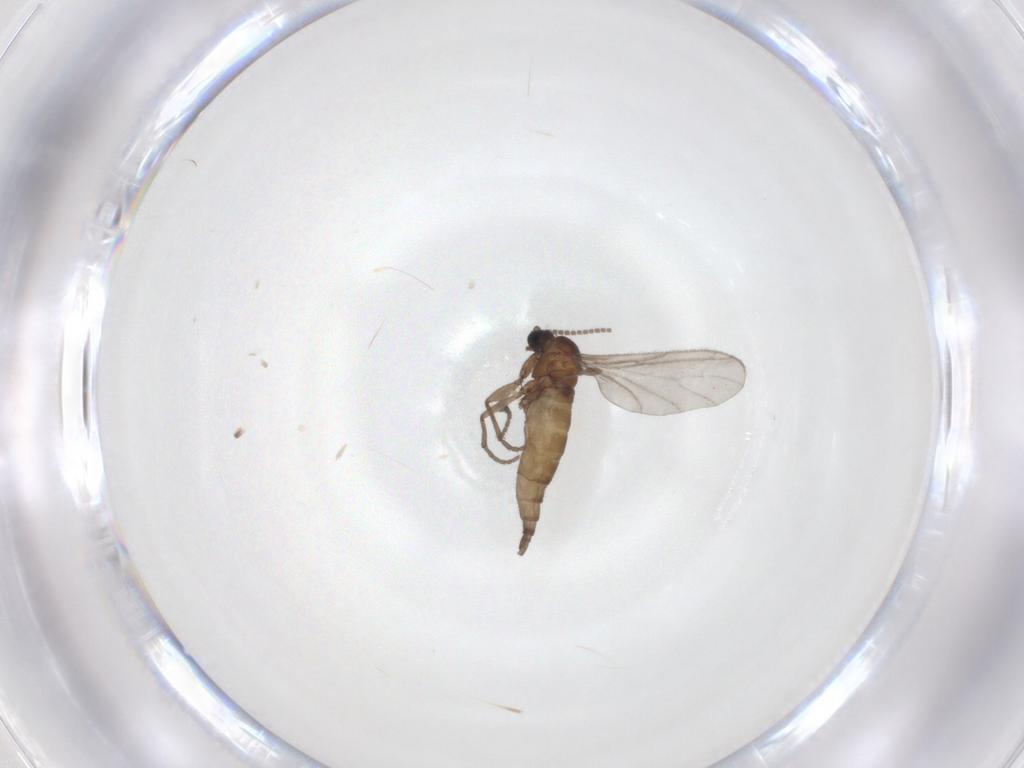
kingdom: Animalia
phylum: Arthropoda
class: Insecta
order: Diptera
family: Sciaridae
